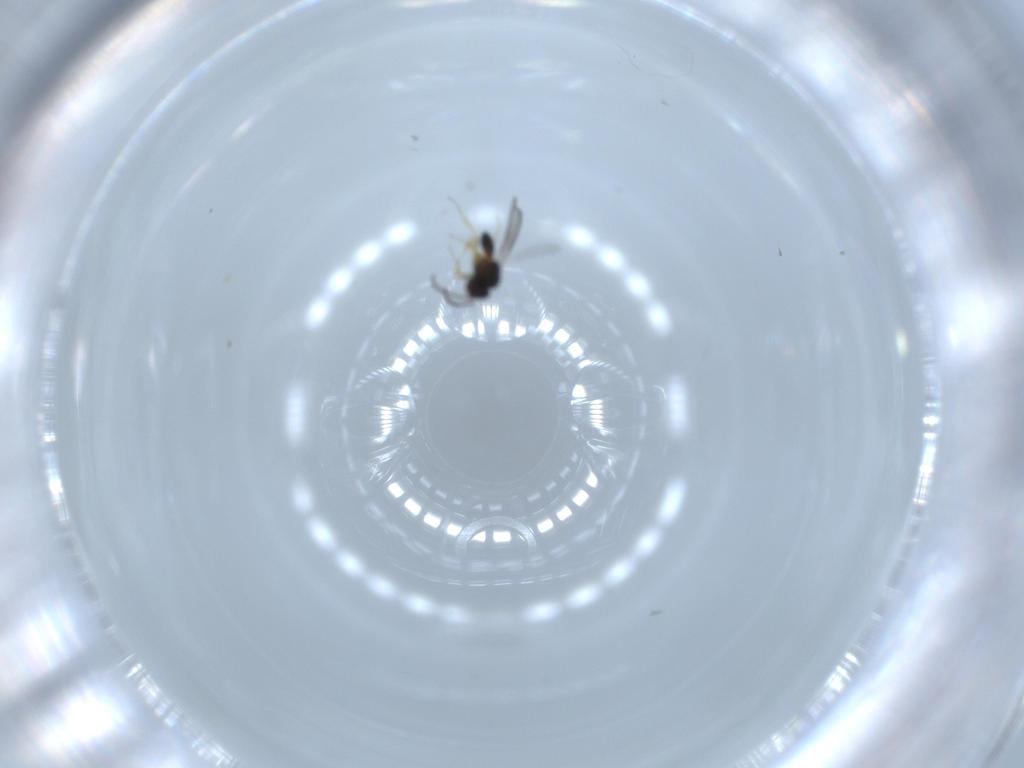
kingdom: Animalia
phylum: Arthropoda
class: Insecta
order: Hymenoptera
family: Scelionidae
